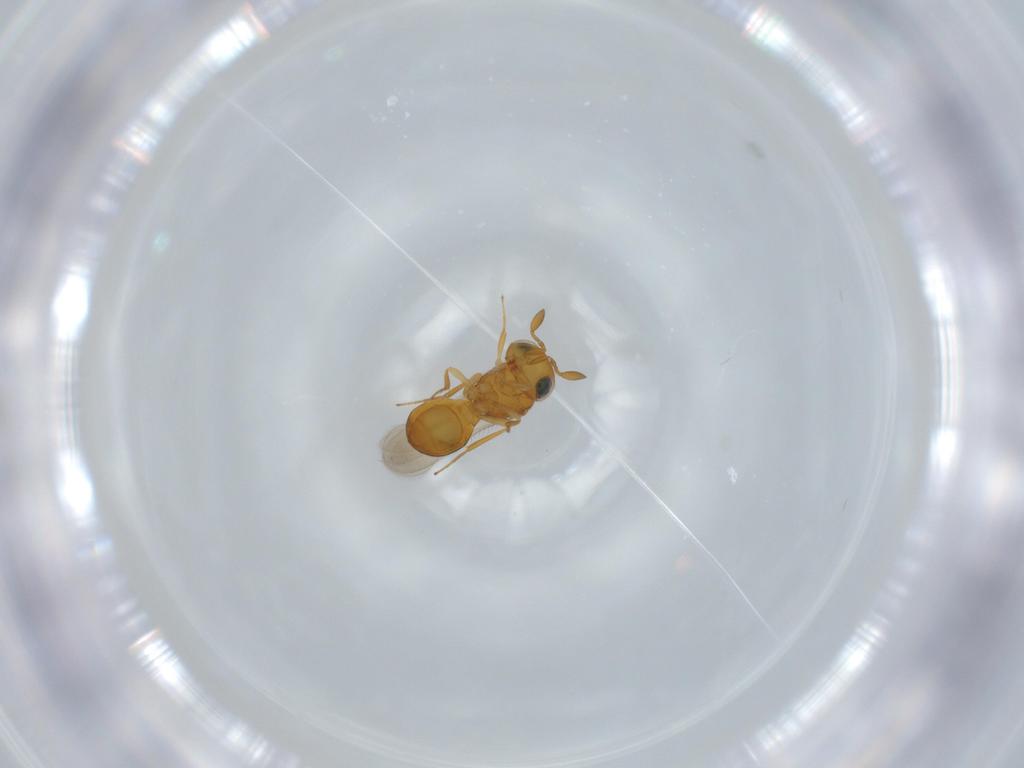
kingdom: Animalia
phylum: Arthropoda
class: Insecta
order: Hymenoptera
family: Scelionidae
